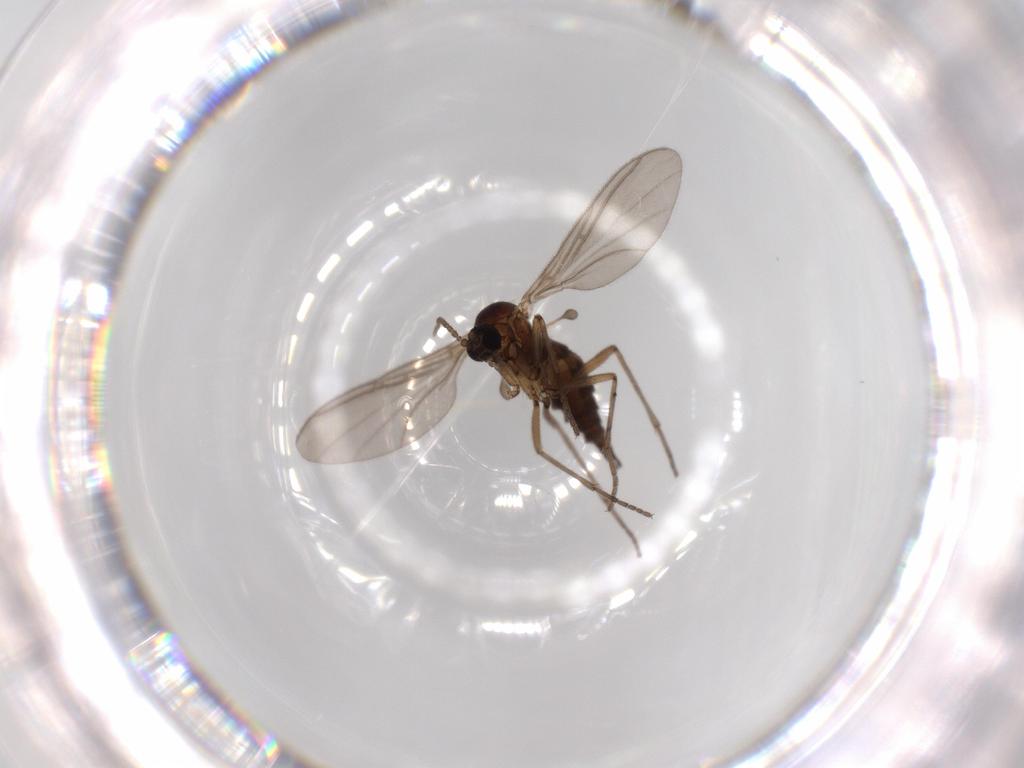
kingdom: Animalia
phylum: Arthropoda
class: Insecta
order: Diptera
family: Sciaridae
